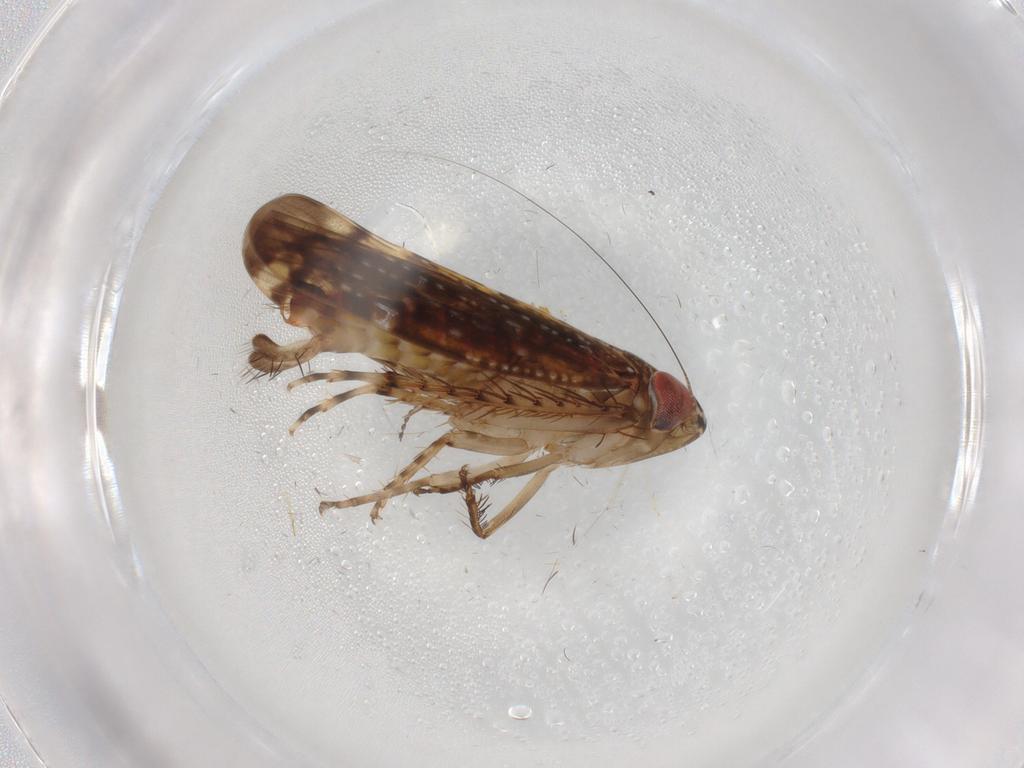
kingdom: Animalia
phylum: Arthropoda
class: Insecta
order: Hemiptera
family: Cicadellidae
